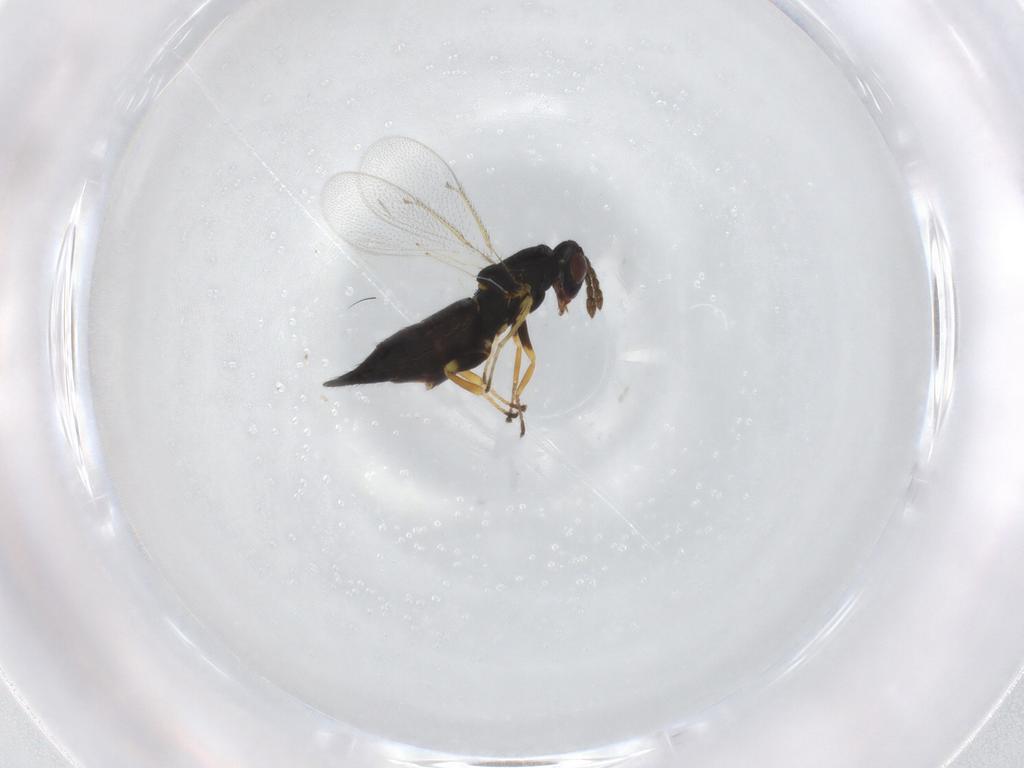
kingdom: Animalia
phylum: Arthropoda
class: Insecta
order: Hymenoptera
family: Eulophidae
